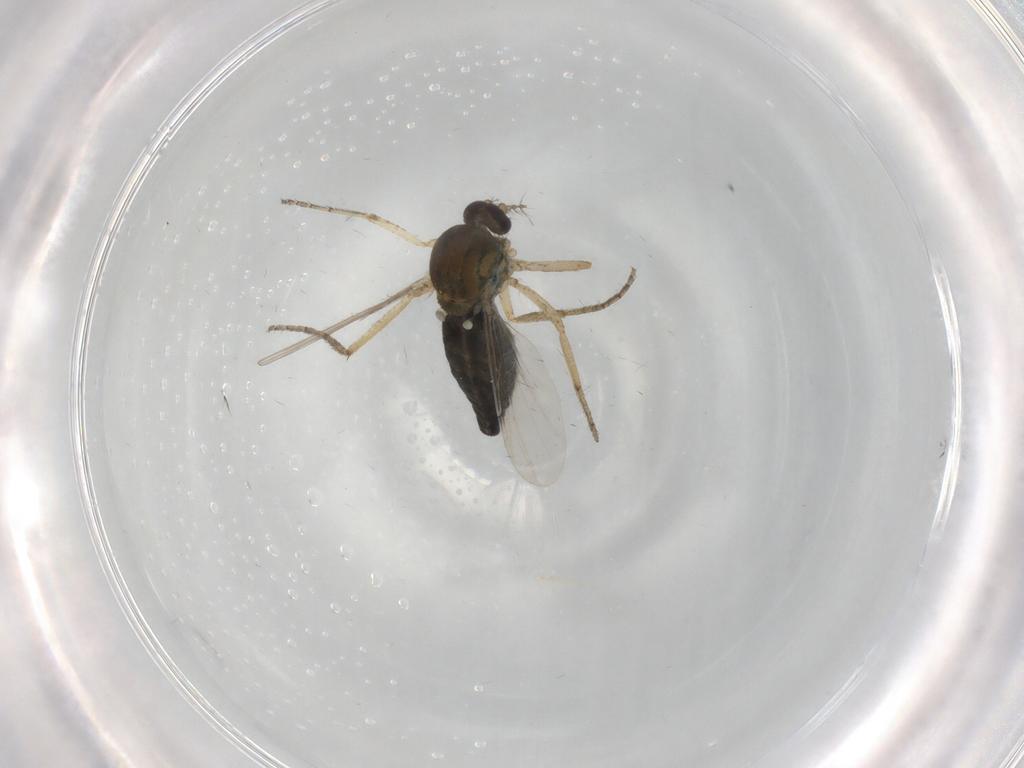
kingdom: Animalia
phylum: Arthropoda
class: Insecta
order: Diptera
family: Ceratopogonidae
